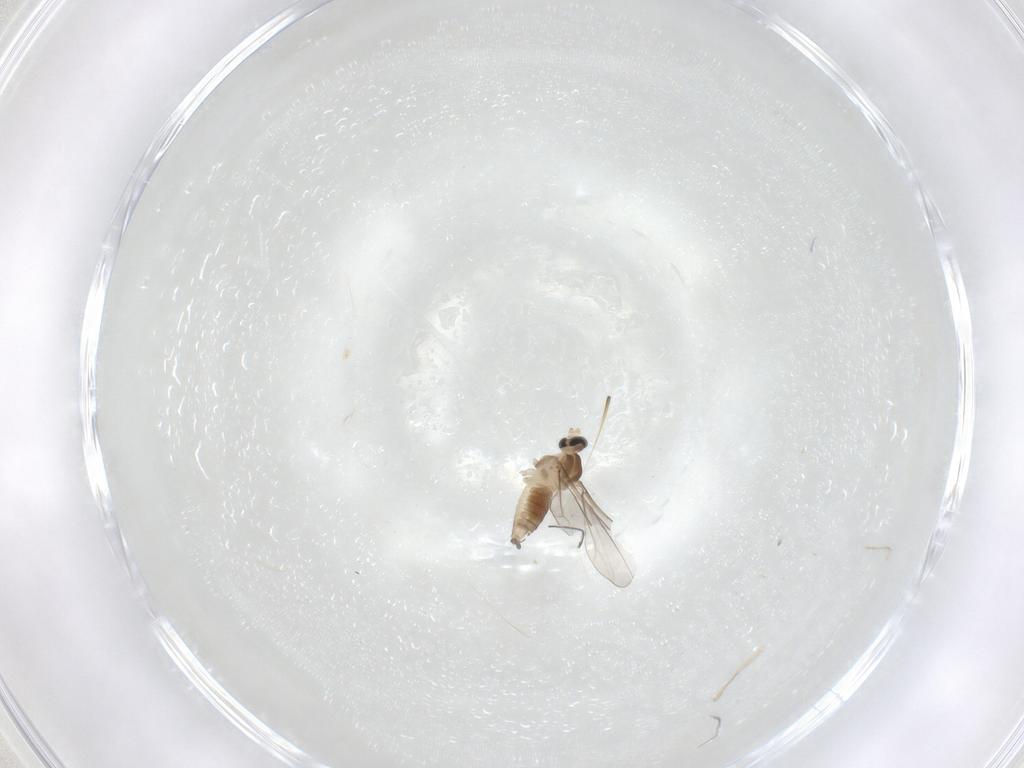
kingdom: Animalia
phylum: Arthropoda
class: Insecta
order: Diptera
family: Cecidomyiidae
